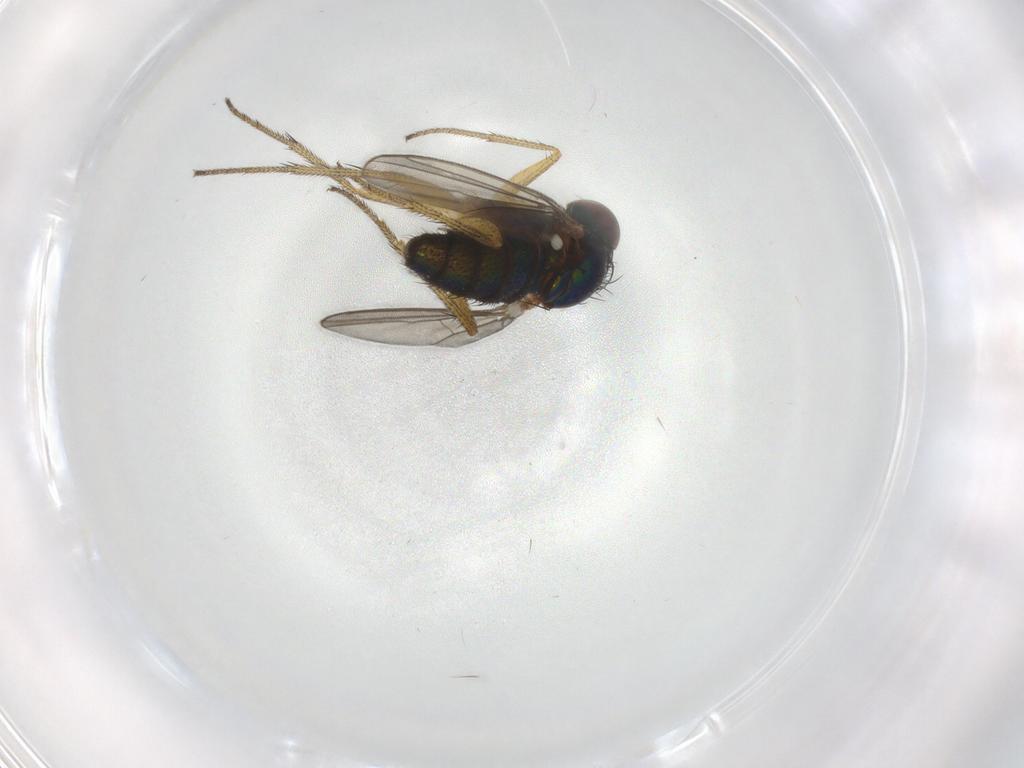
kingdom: Animalia
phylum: Arthropoda
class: Insecta
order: Diptera
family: Dolichopodidae
